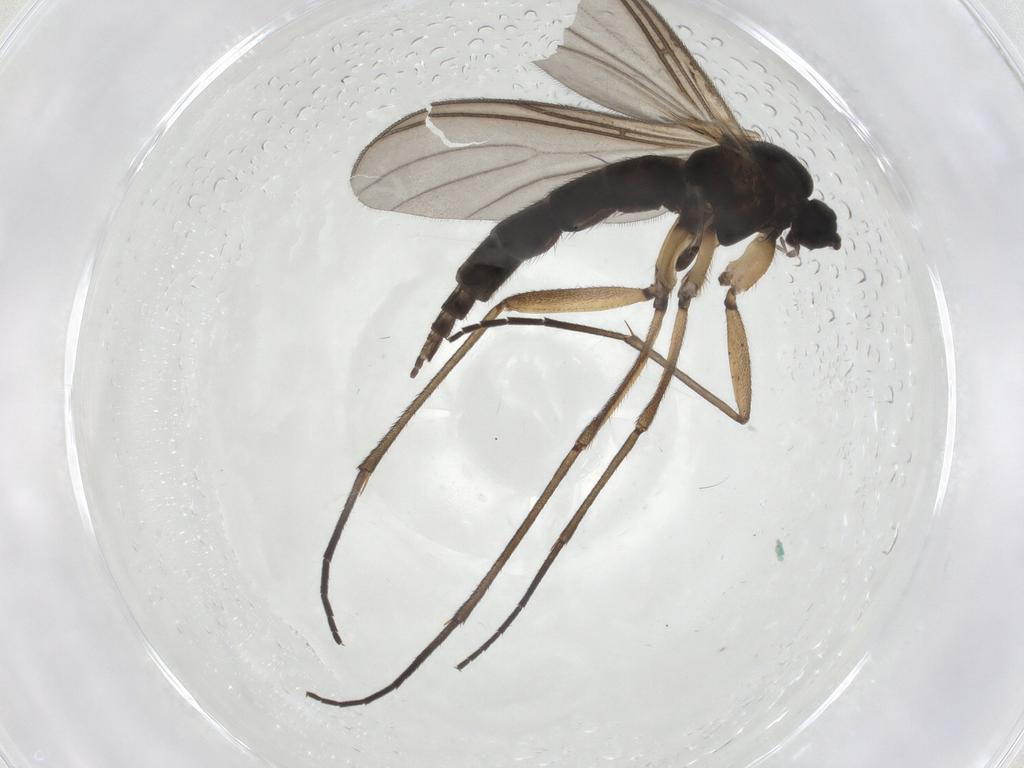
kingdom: Animalia
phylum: Arthropoda
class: Insecta
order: Diptera
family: Sciaridae
